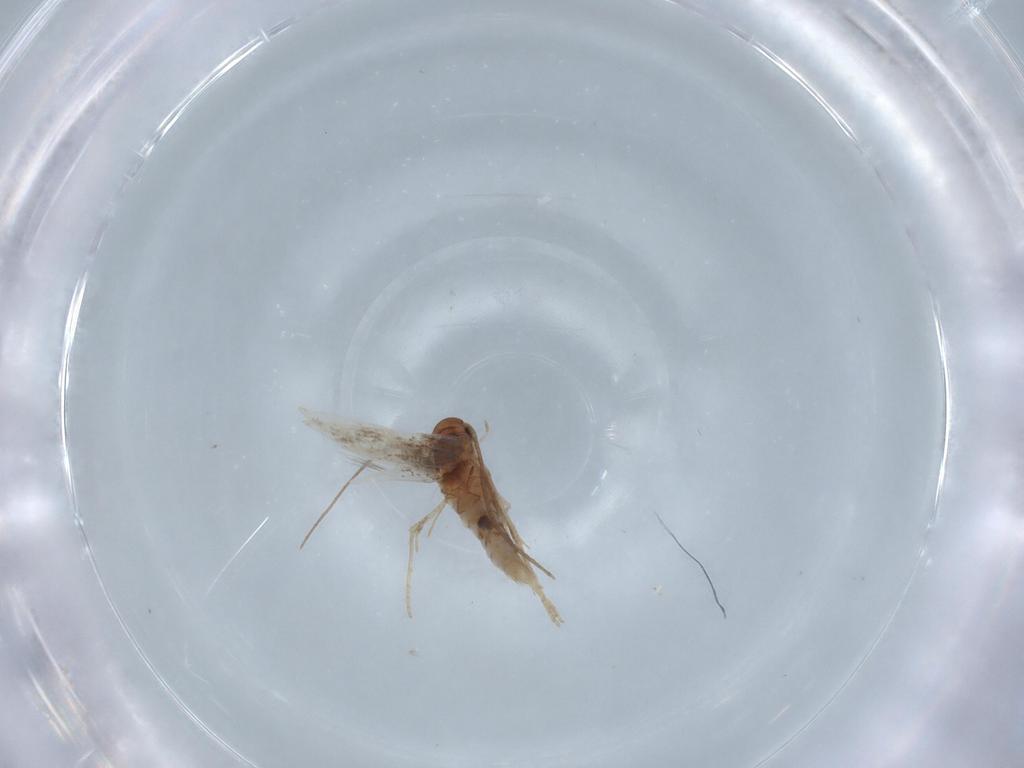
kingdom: Animalia
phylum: Arthropoda
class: Insecta
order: Lepidoptera
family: Elachistidae
